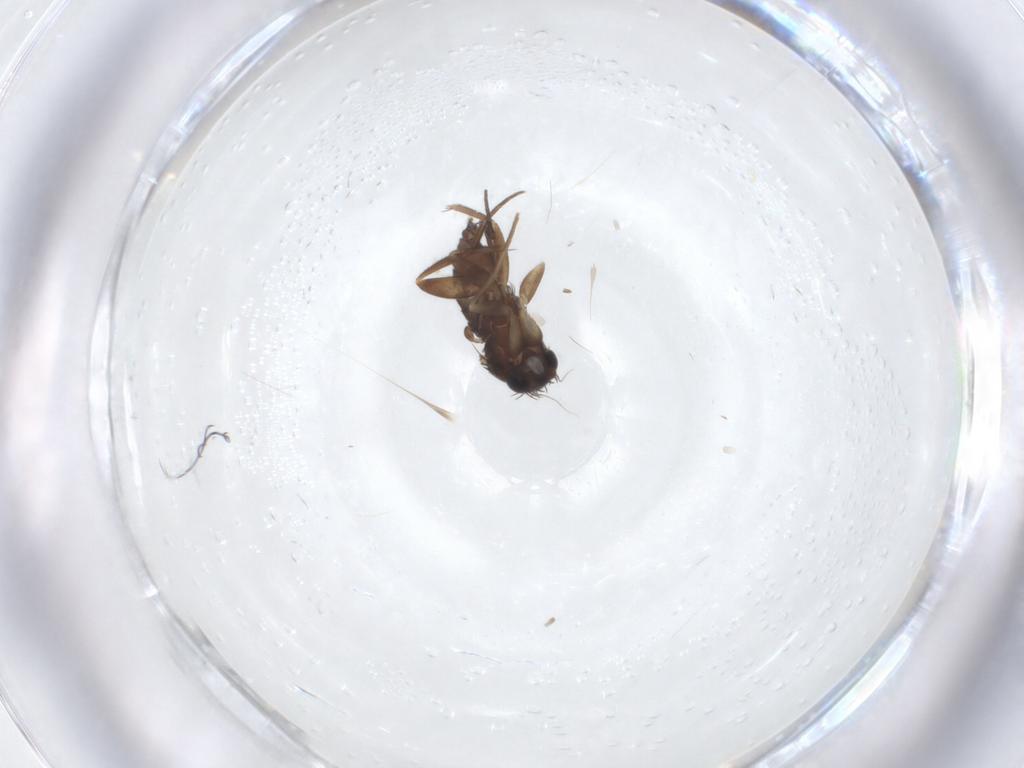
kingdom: Animalia
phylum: Arthropoda
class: Insecta
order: Diptera
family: Phoridae
